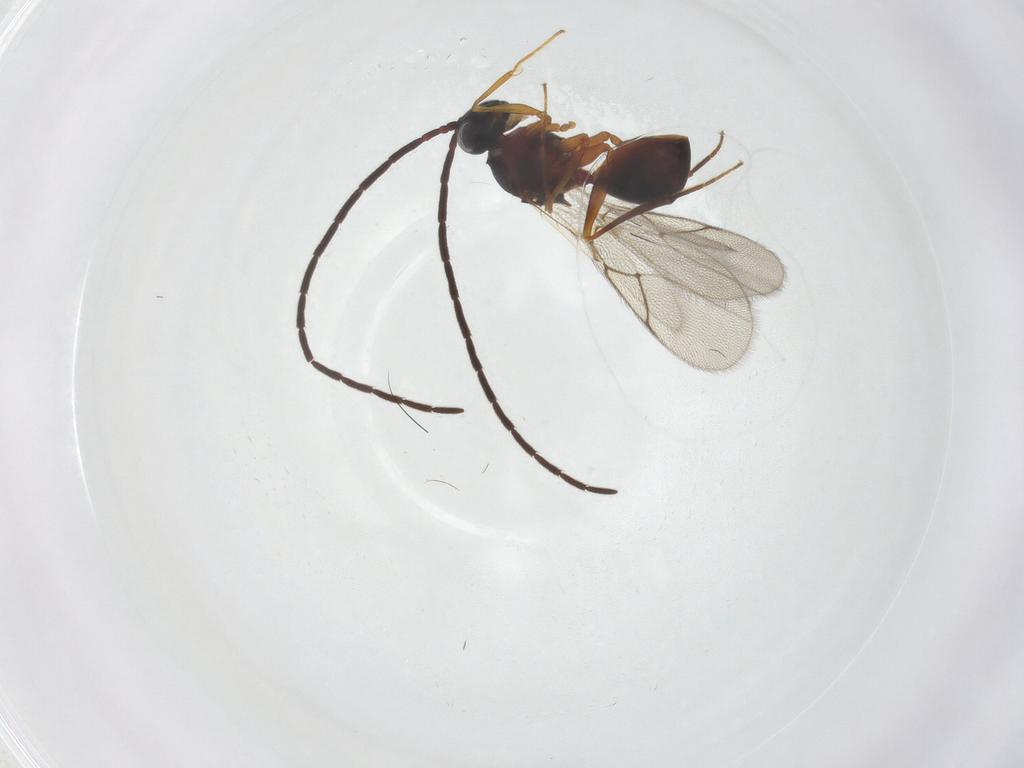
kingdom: Animalia
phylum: Arthropoda
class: Insecta
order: Hymenoptera
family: Figitidae
